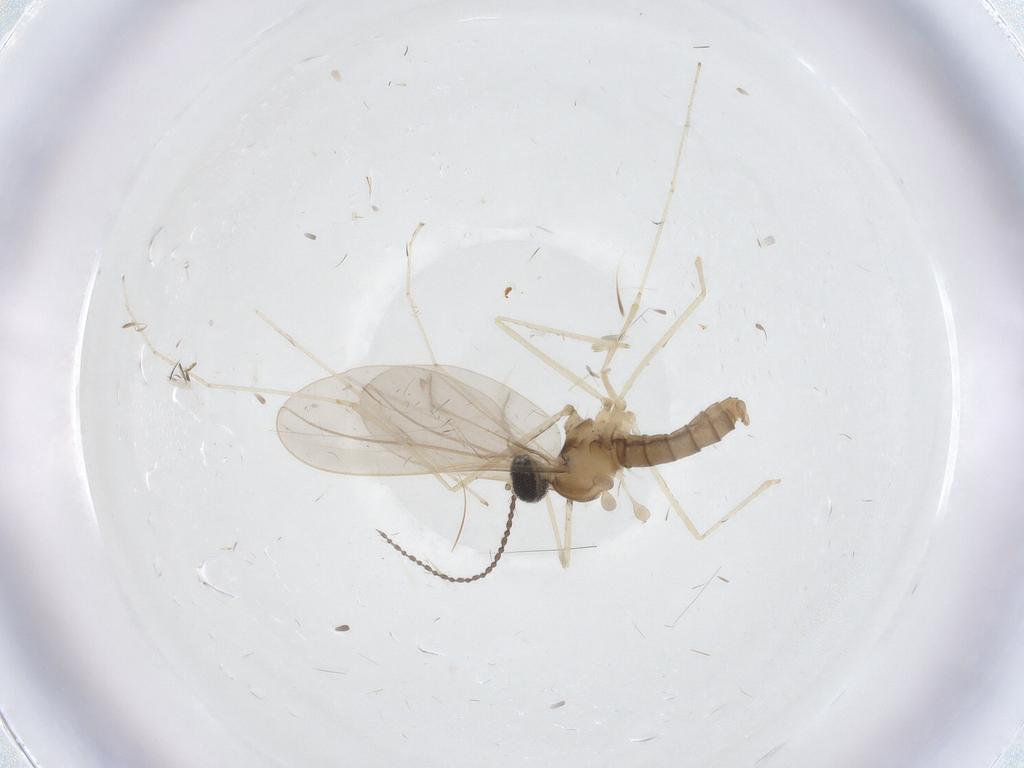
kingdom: Animalia
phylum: Arthropoda
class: Insecta
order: Diptera
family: Cecidomyiidae
